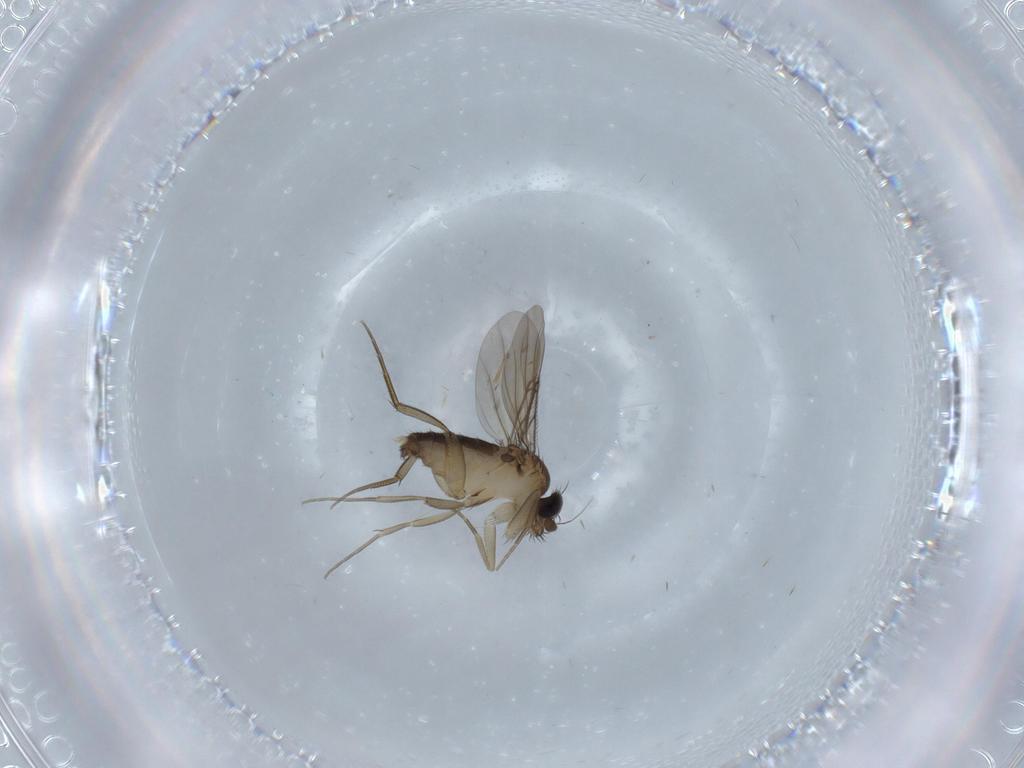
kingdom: Animalia
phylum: Arthropoda
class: Insecta
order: Diptera
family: Phoridae
